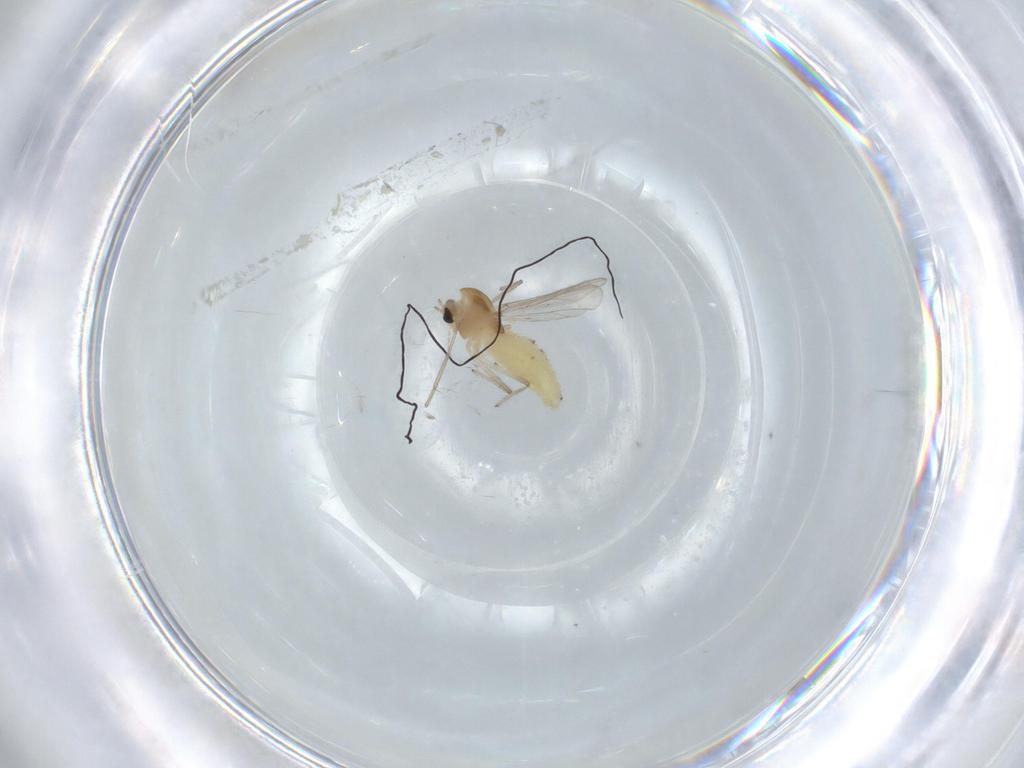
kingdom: Animalia
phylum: Arthropoda
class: Insecta
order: Diptera
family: Chironomidae
